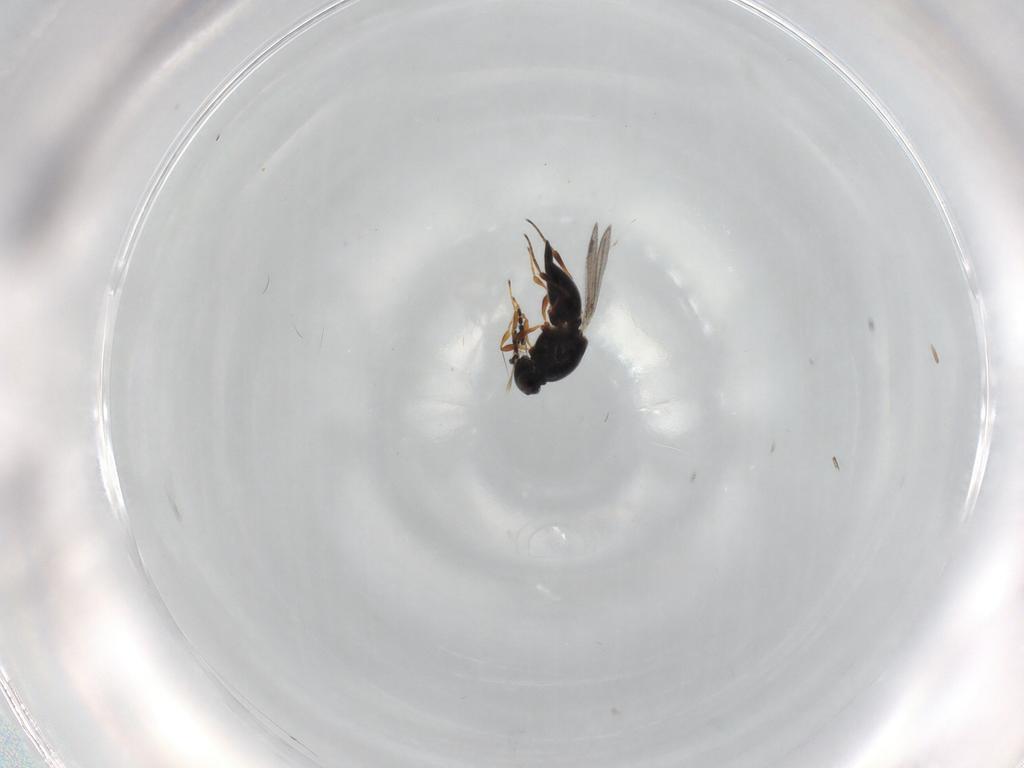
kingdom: Animalia
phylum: Arthropoda
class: Insecta
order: Hymenoptera
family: Platygastridae
